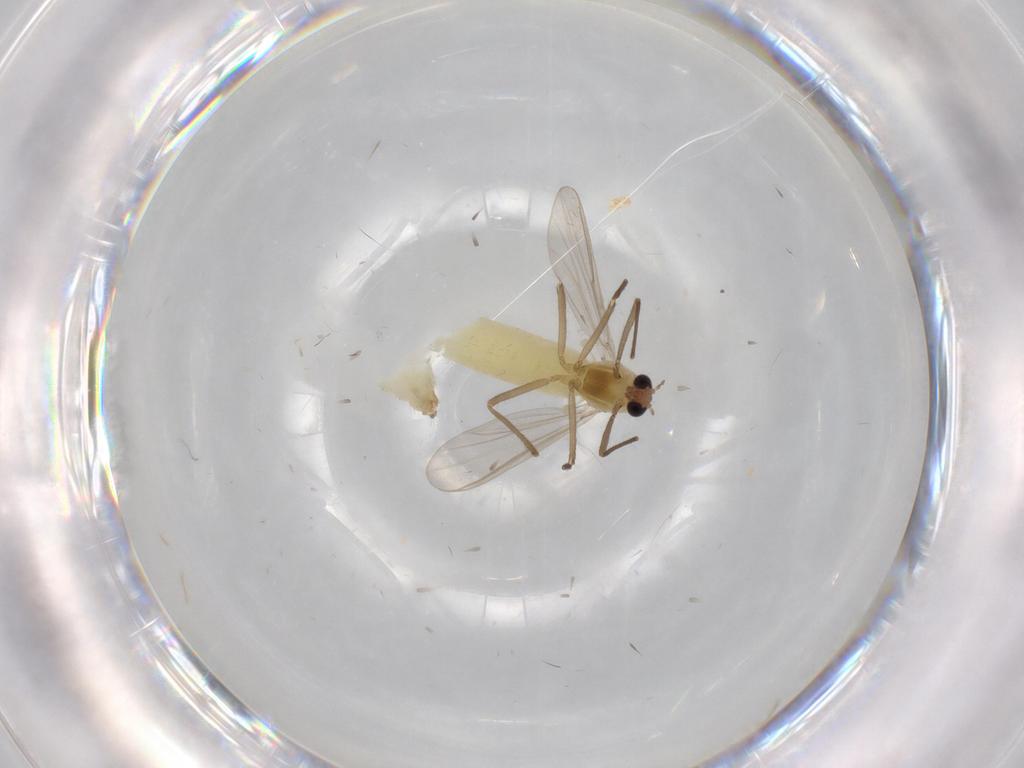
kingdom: Animalia
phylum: Arthropoda
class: Insecta
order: Diptera
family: Chironomidae
